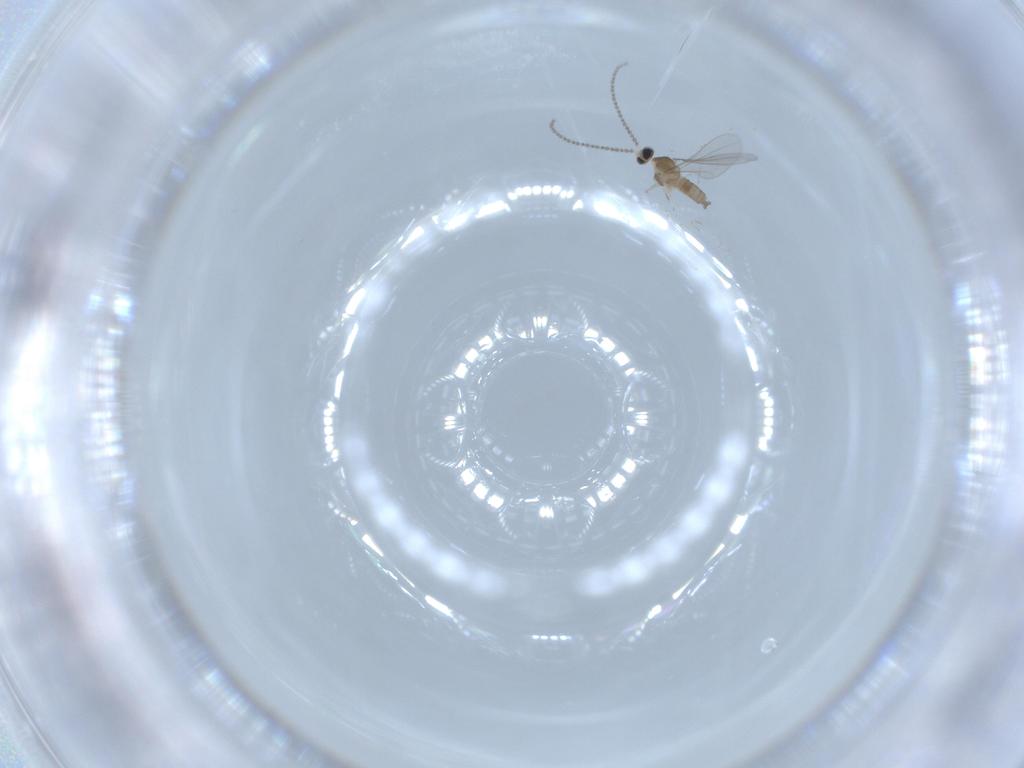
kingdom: Animalia
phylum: Arthropoda
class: Insecta
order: Diptera
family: Cecidomyiidae
